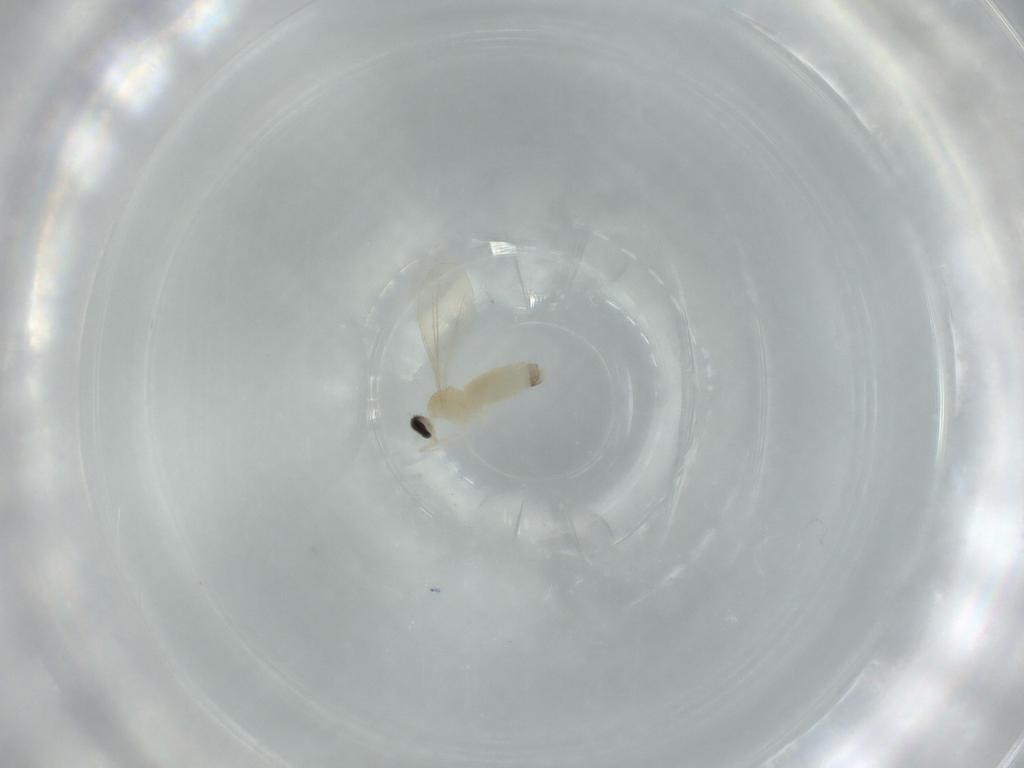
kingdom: Animalia
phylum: Arthropoda
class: Insecta
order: Diptera
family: Cecidomyiidae
